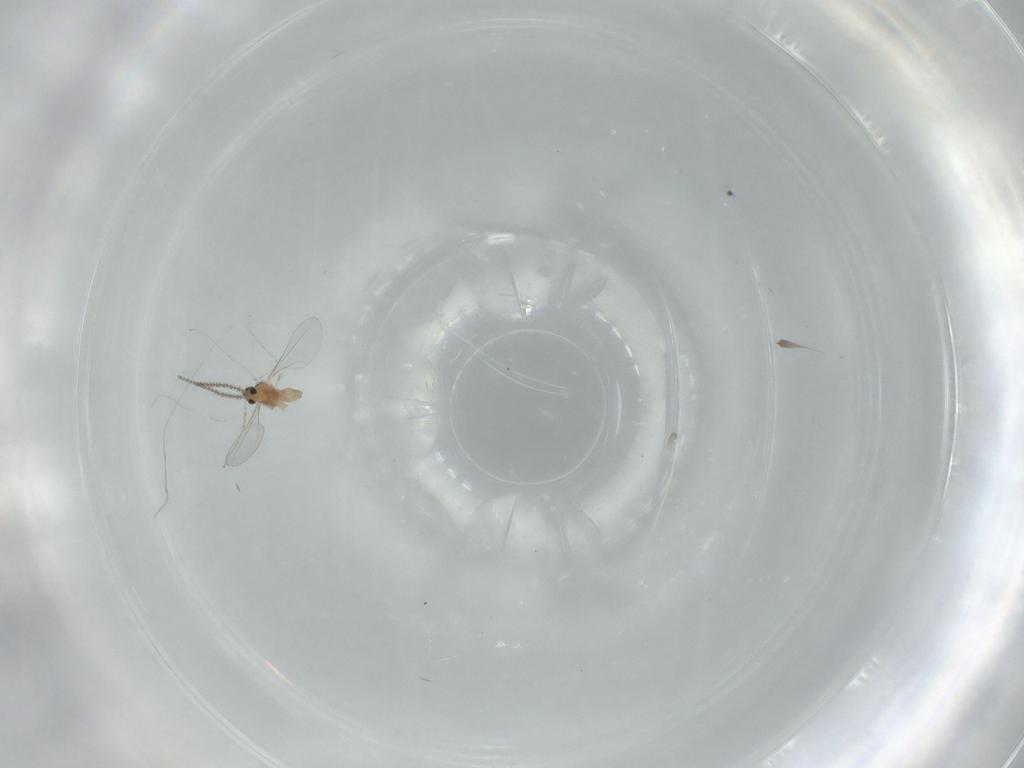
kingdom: Animalia
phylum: Arthropoda
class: Insecta
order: Diptera
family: Cecidomyiidae
